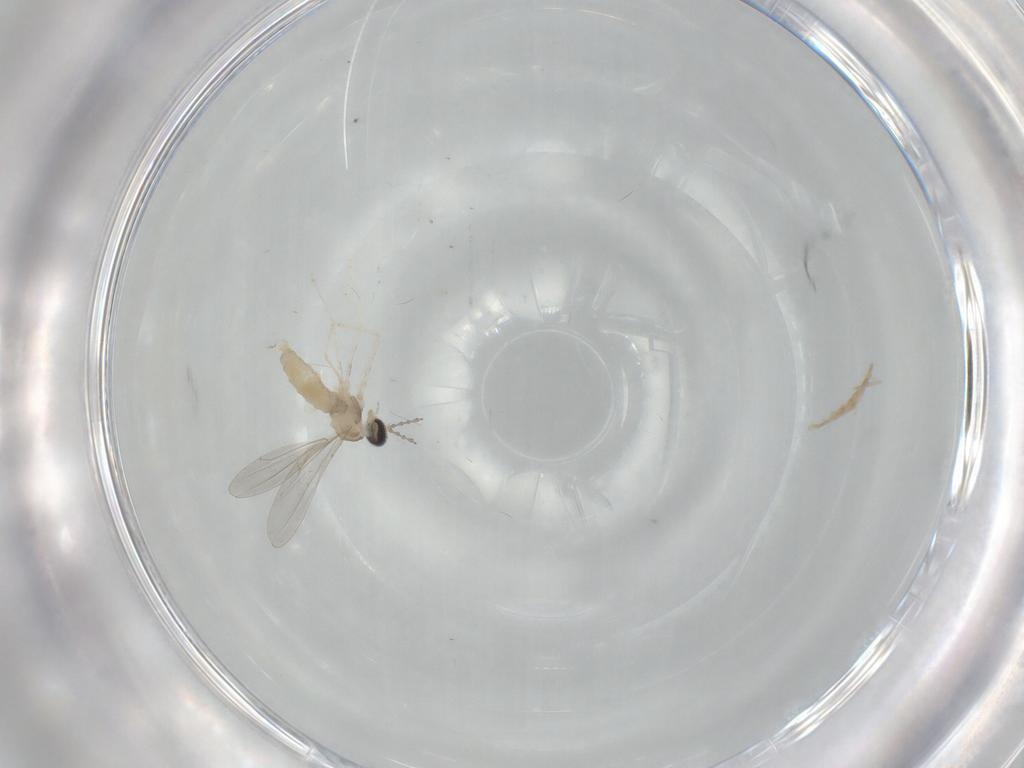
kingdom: Animalia
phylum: Arthropoda
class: Insecta
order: Diptera
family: Cecidomyiidae
